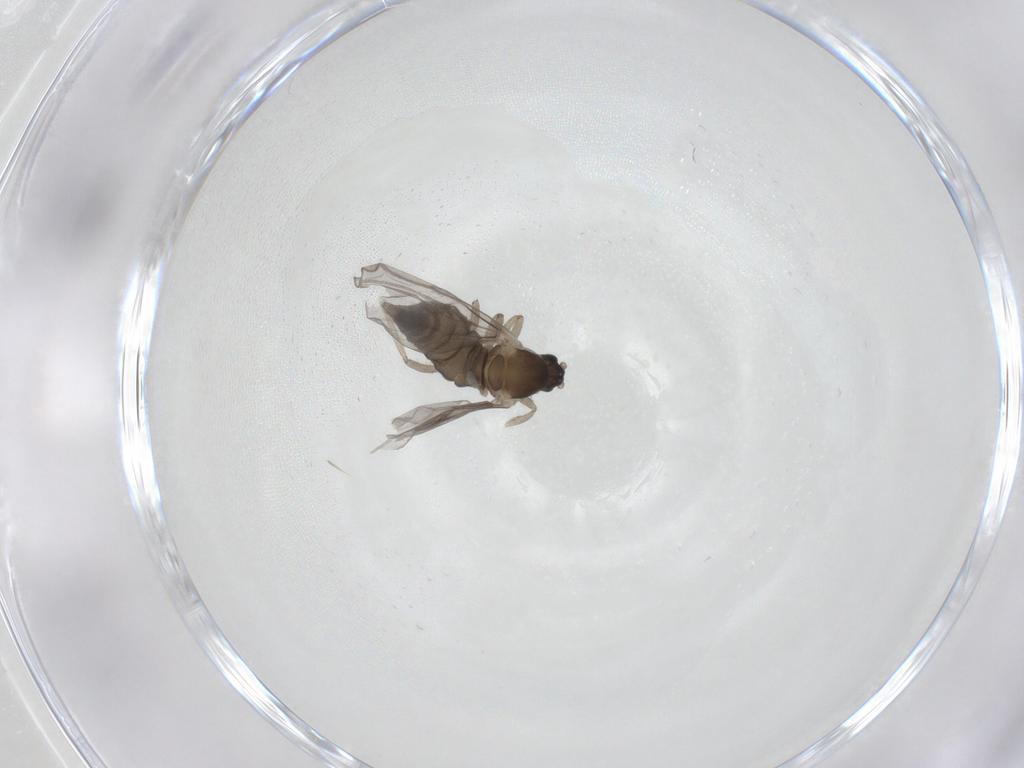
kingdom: Animalia
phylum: Arthropoda
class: Insecta
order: Diptera
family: Sciaridae
